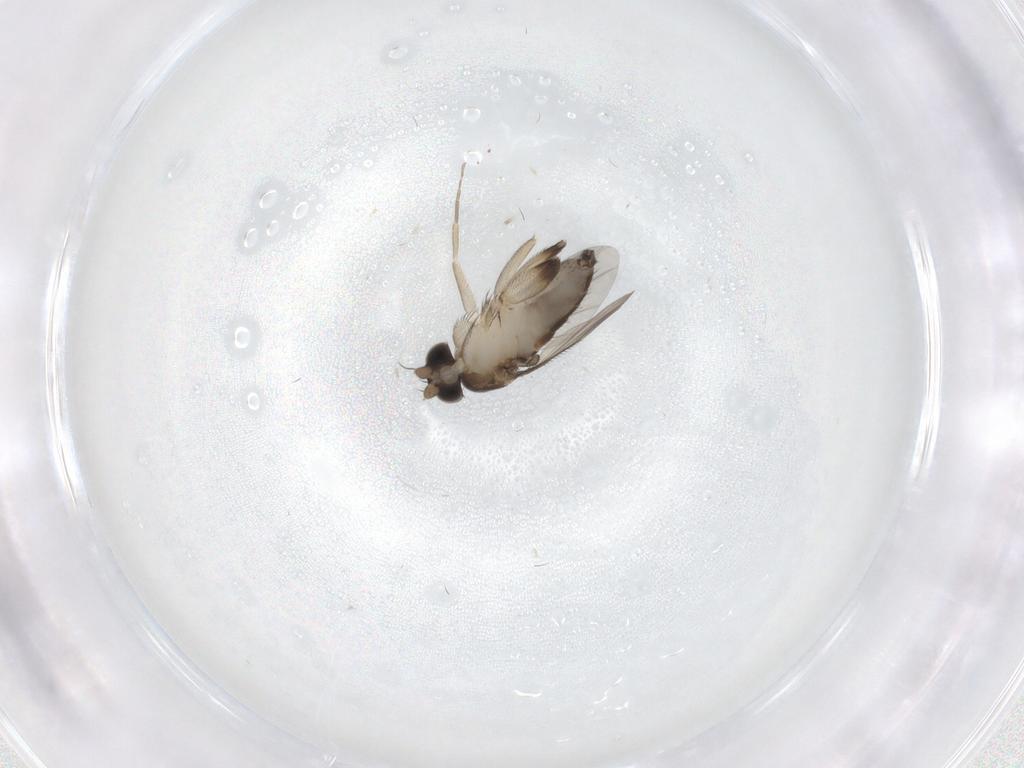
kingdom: Animalia
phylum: Arthropoda
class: Insecta
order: Diptera
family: Phoridae
